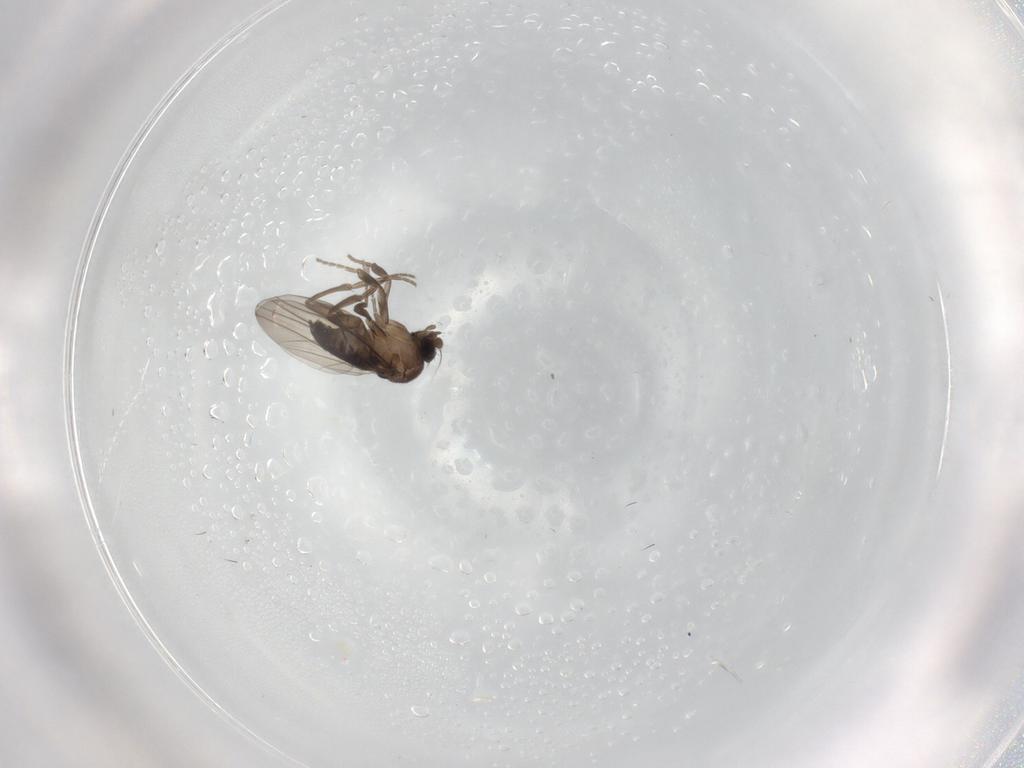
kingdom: Animalia
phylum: Arthropoda
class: Insecta
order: Diptera
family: Phoridae
